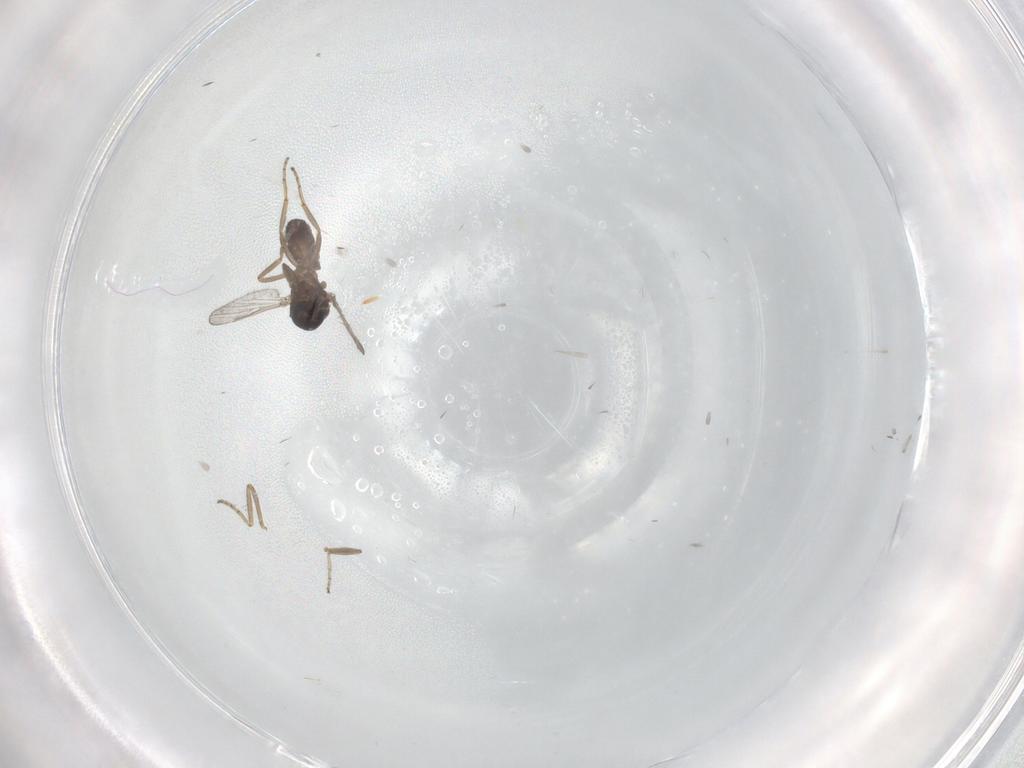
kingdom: Animalia
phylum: Arthropoda
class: Insecta
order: Diptera
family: Ceratopogonidae
